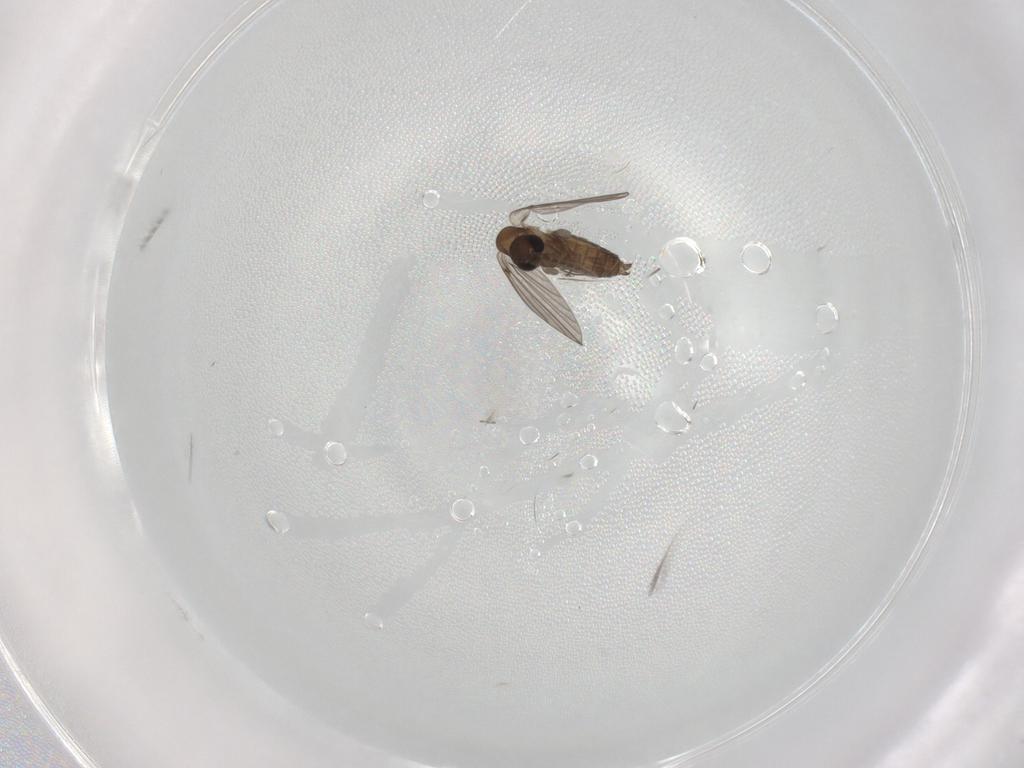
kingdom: Animalia
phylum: Arthropoda
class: Insecta
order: Diptera
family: Cecidomyiidae
